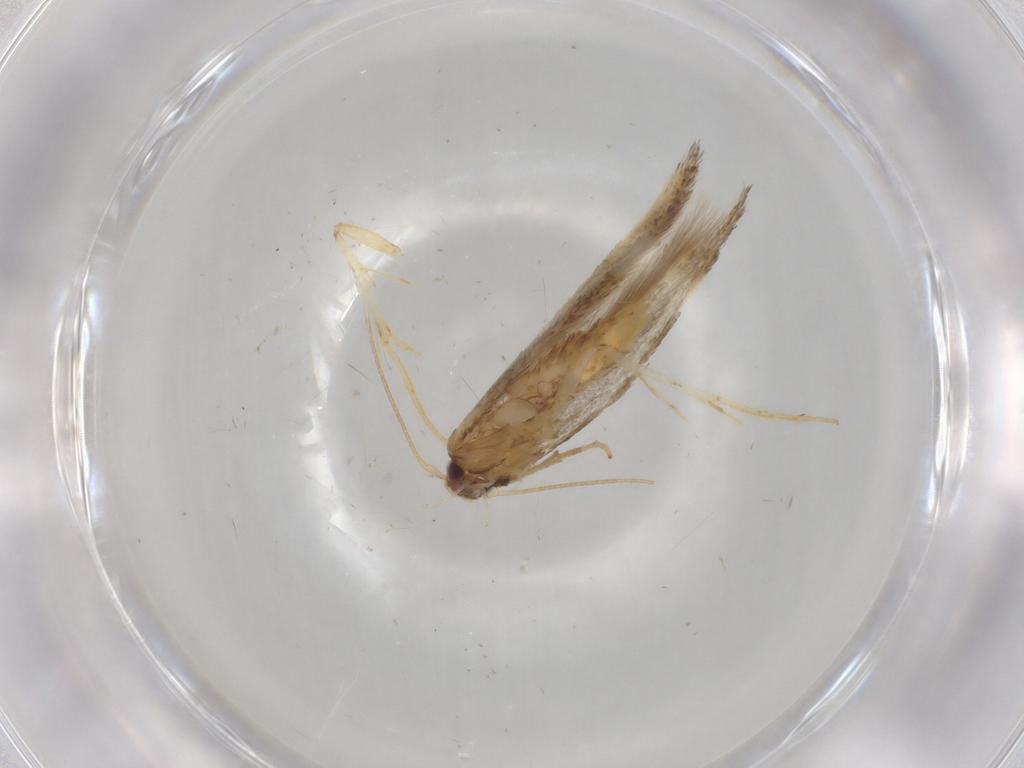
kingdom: Animalia
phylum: Arthropoda
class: Insecta
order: Lepidoptera
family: Cosmopterigidae
